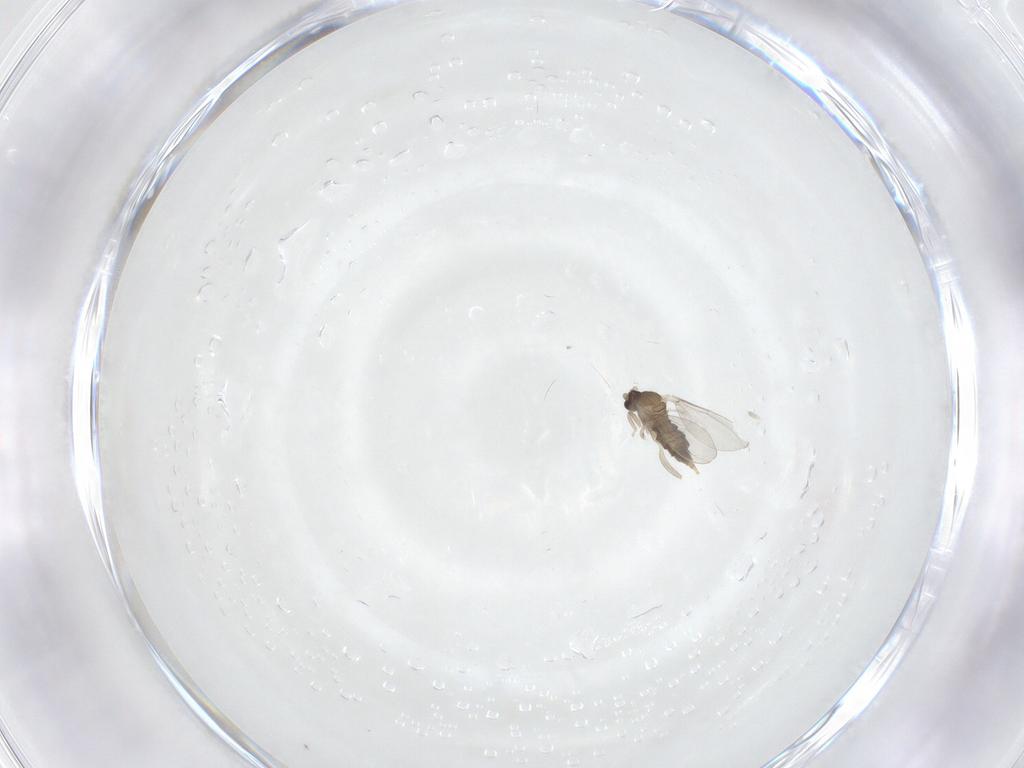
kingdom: Animalia
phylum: Arthropoda
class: Insecta
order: Diptera
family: Cecidomyiidae
